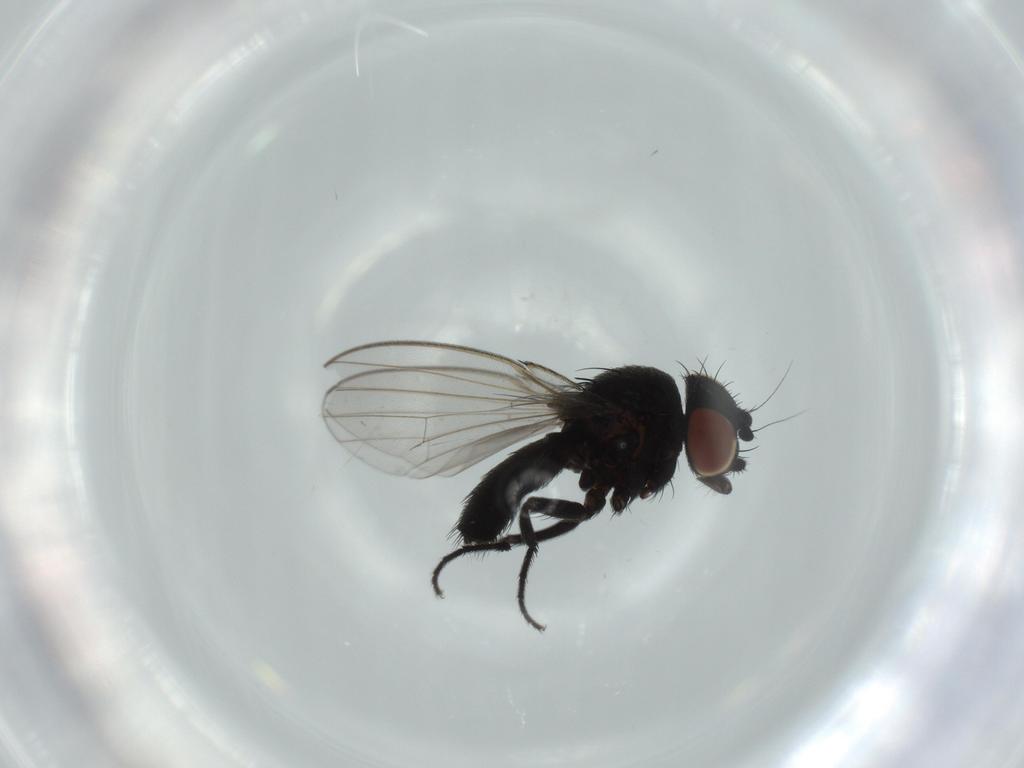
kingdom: Animalia
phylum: Arthropoda
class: Insecta
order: Diptera
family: Milichiidae
